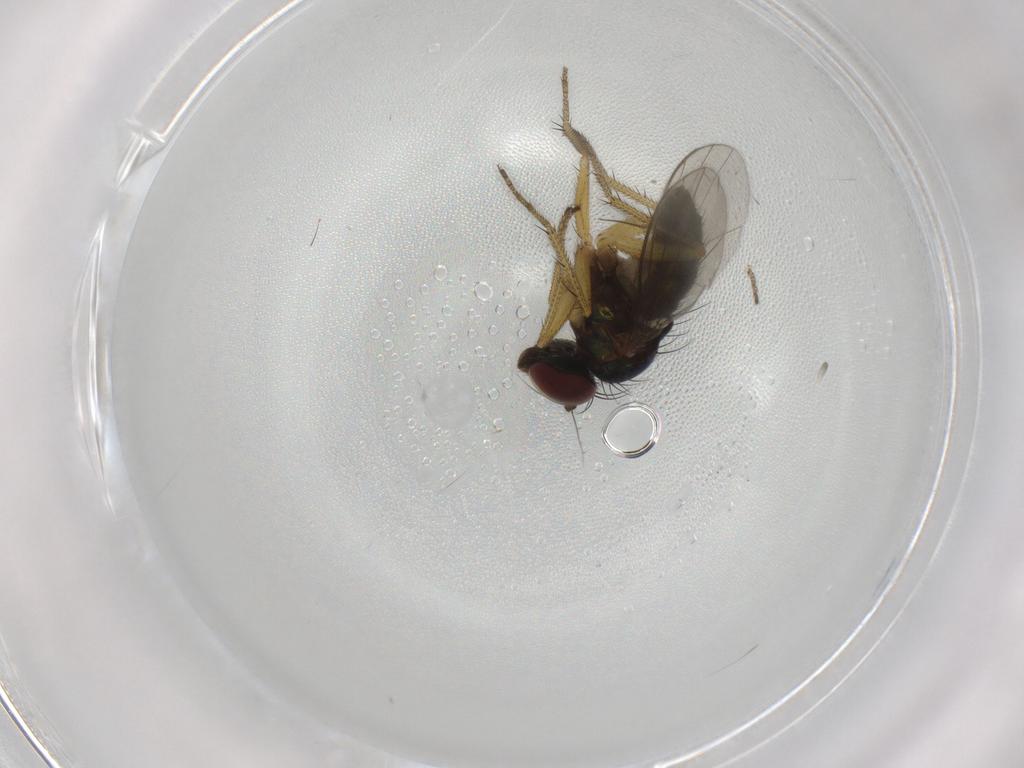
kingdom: Animalia
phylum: Arthropoda
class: Insecta
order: Diptera
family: Chironomidae
